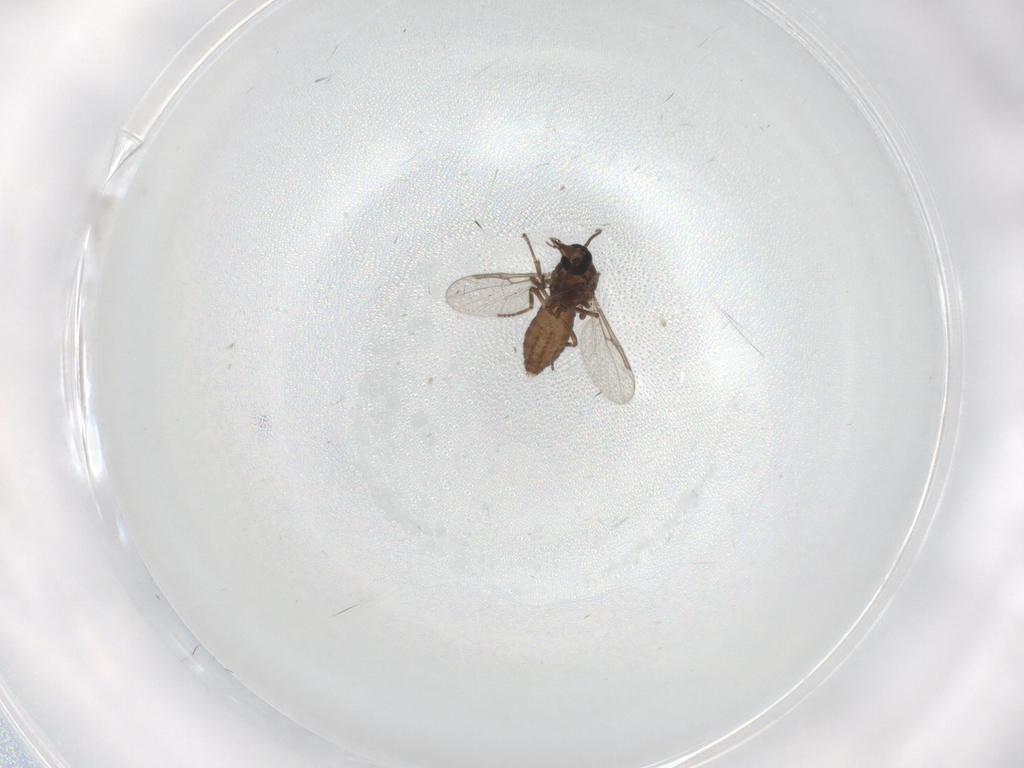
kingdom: Animalia
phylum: Arthropoda
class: Insecta
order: Diptera
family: Ceratopogonidae
